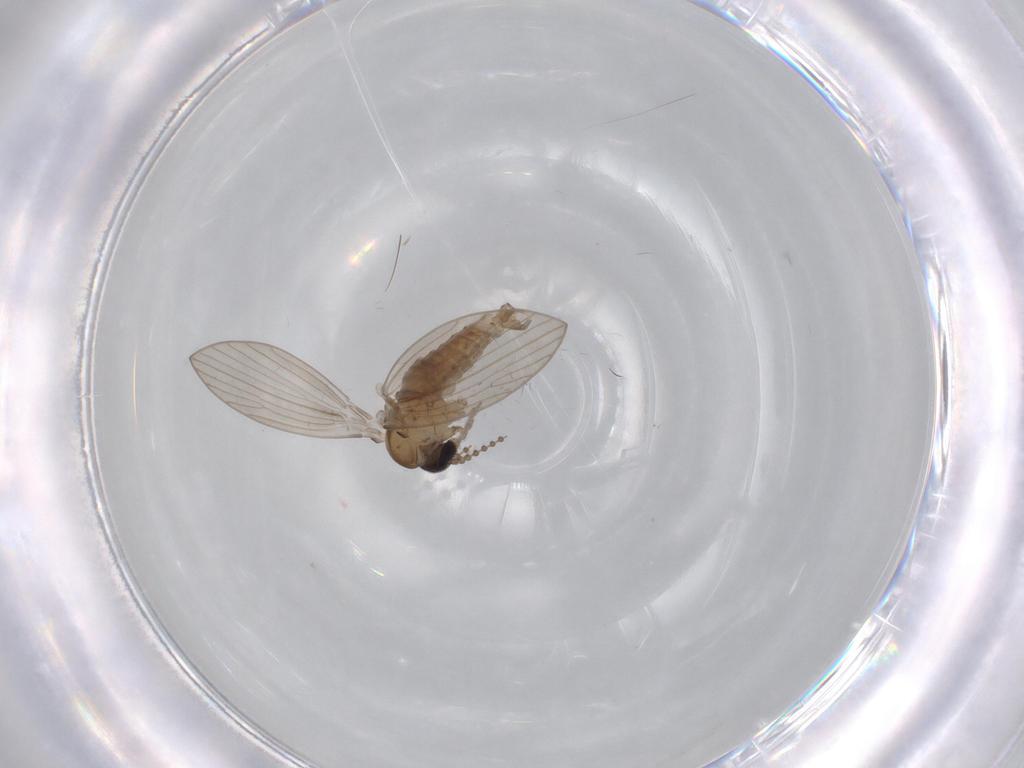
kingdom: Animalia
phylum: Arthropoda
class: Insecta
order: Diptera
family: Psychodidae
